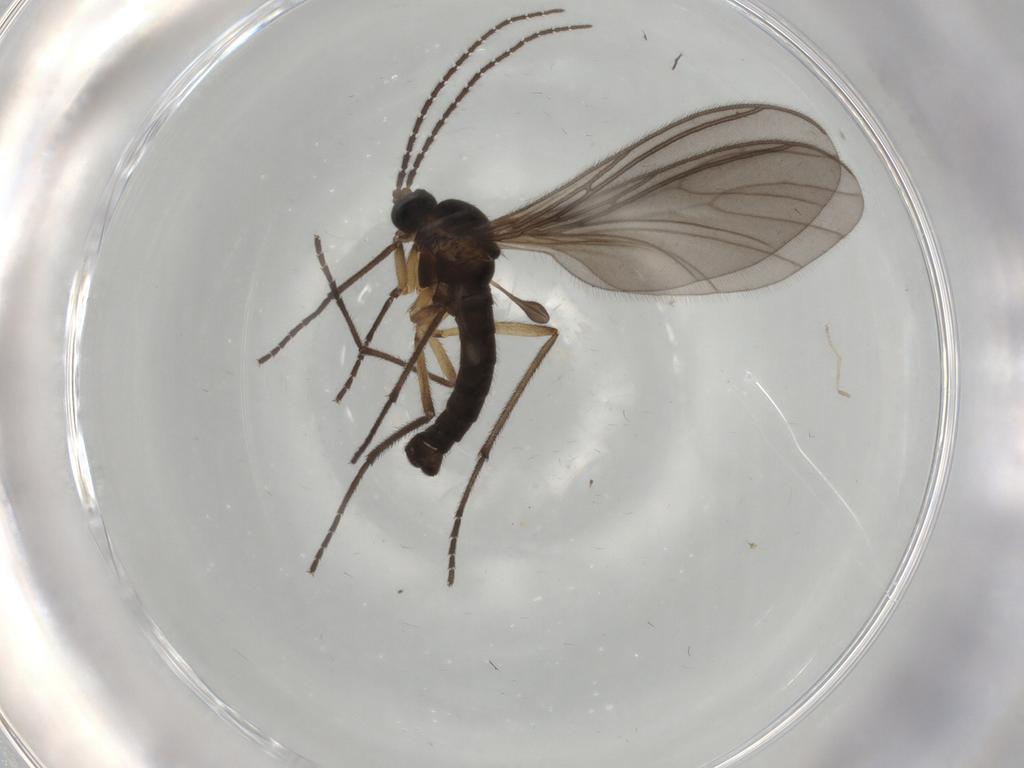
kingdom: Animalia
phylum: Arthropoda
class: Insecta
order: Diptera
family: Sciaridae
